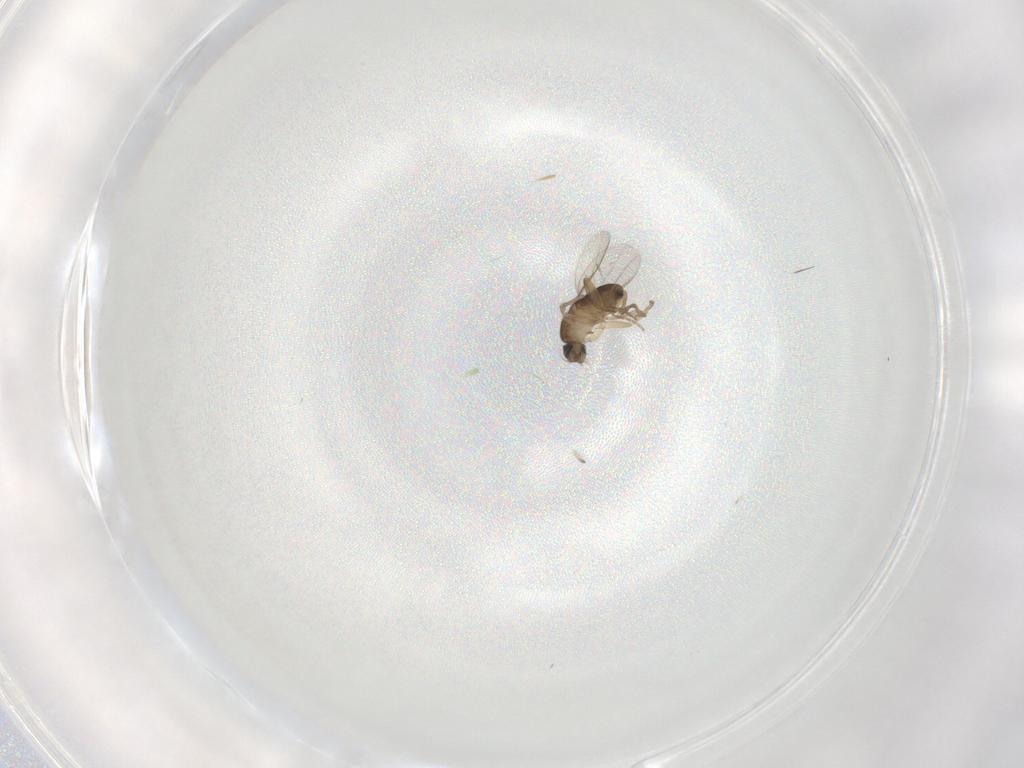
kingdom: Animalia
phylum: Arthropoda
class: Insecta
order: Diptera
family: Phoridae
